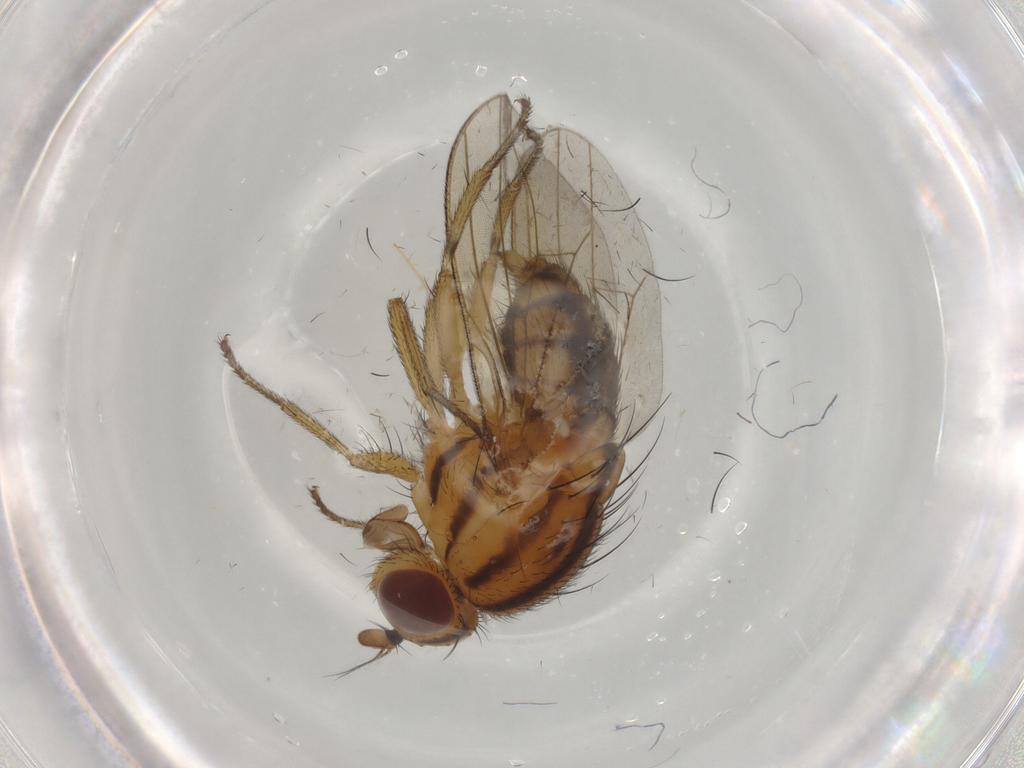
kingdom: Animalia
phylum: Arthropoda
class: Insecta
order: Diptera
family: Lauxaniidae
